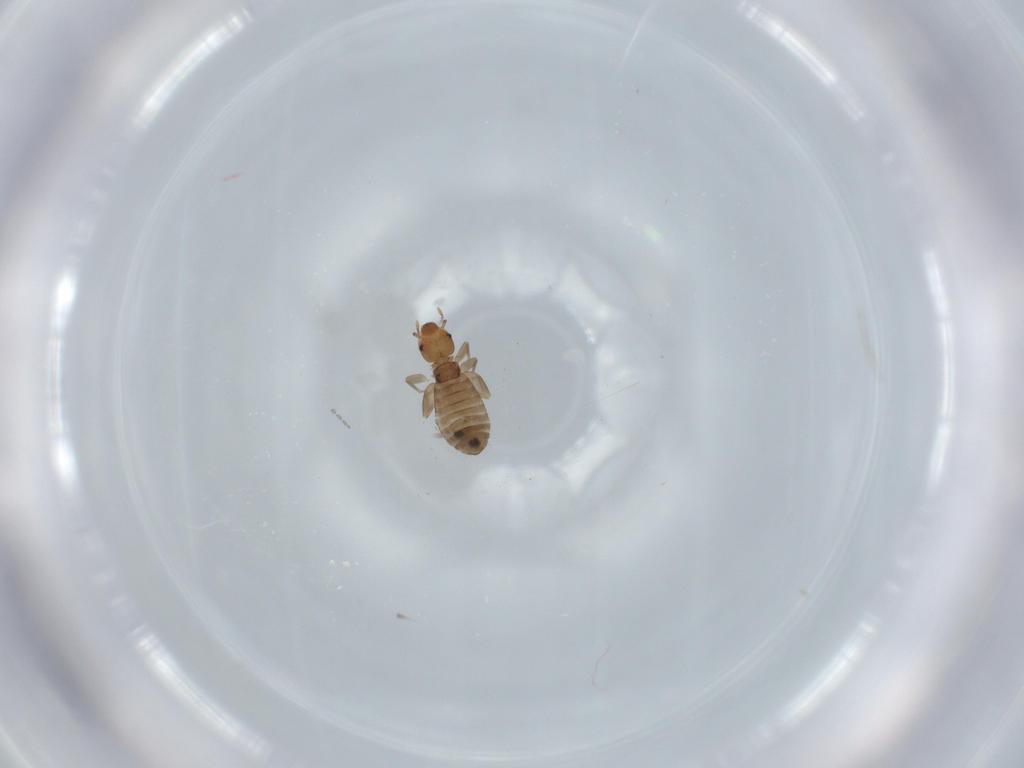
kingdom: Animalia
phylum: Arthropoda
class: Insecta
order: Psocodea
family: Liposcelididae
